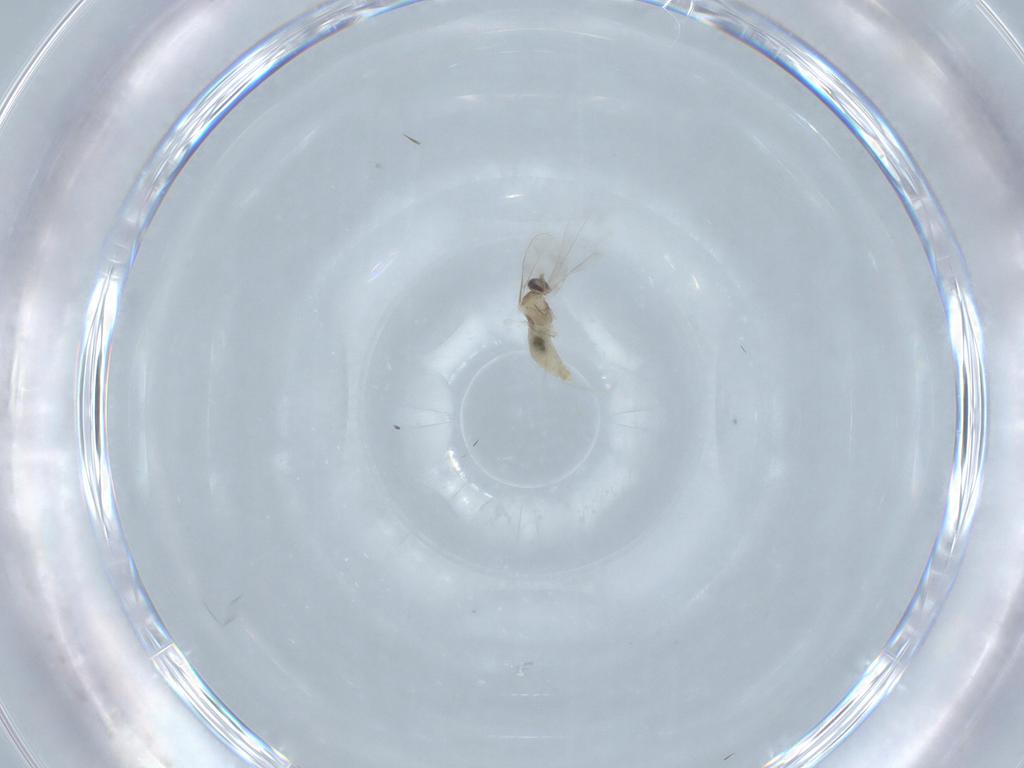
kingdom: Animalia
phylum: Arthropoda
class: Insecta
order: Diptera
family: Cecidomyiidae
